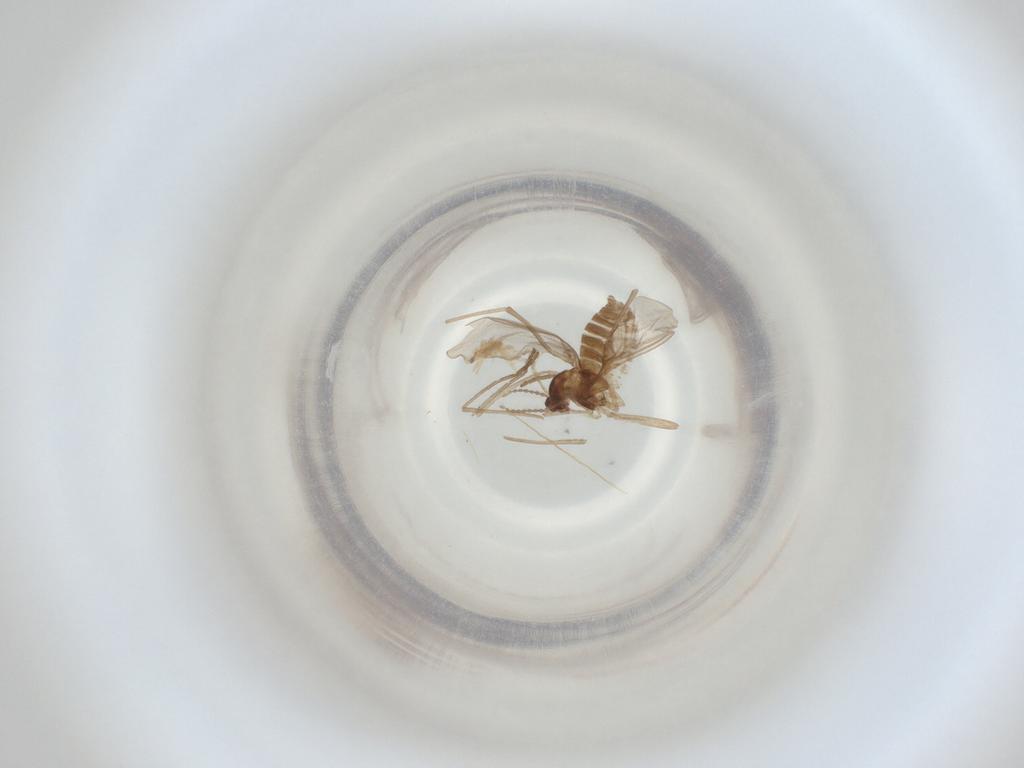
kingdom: Animalia
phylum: Arthropoda
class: Insecta
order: Diptera
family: Cecidomyiidae
